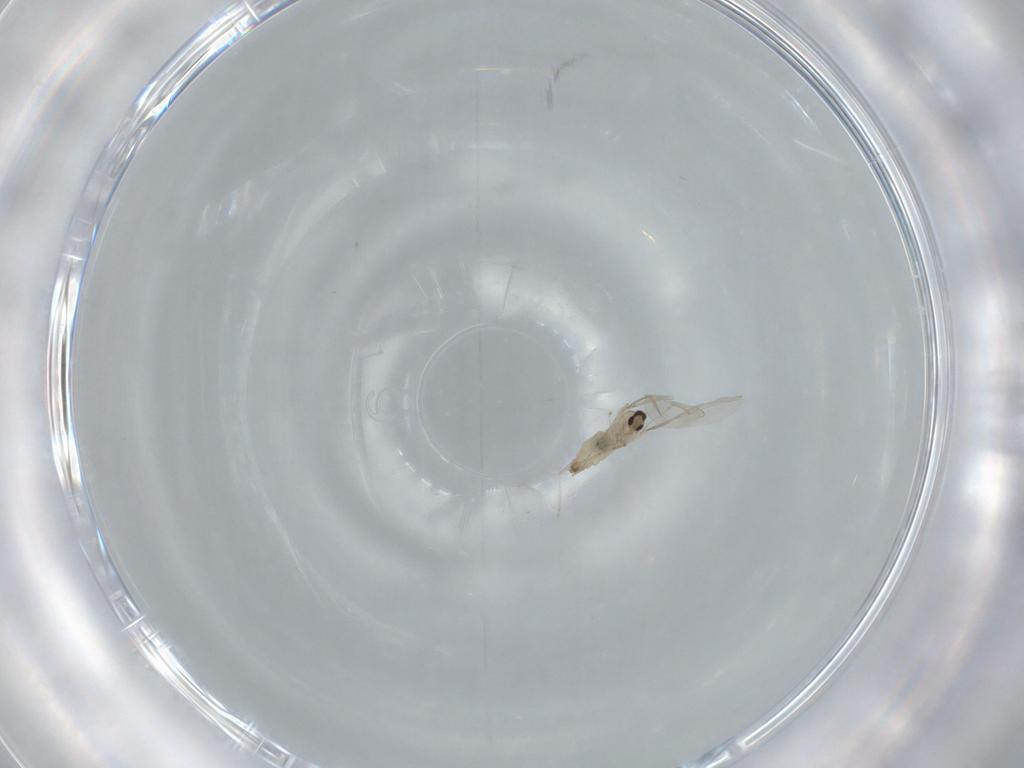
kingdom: Animalia
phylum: Arthropoda
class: Insecta
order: Diptera
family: Cecidomyiidae
